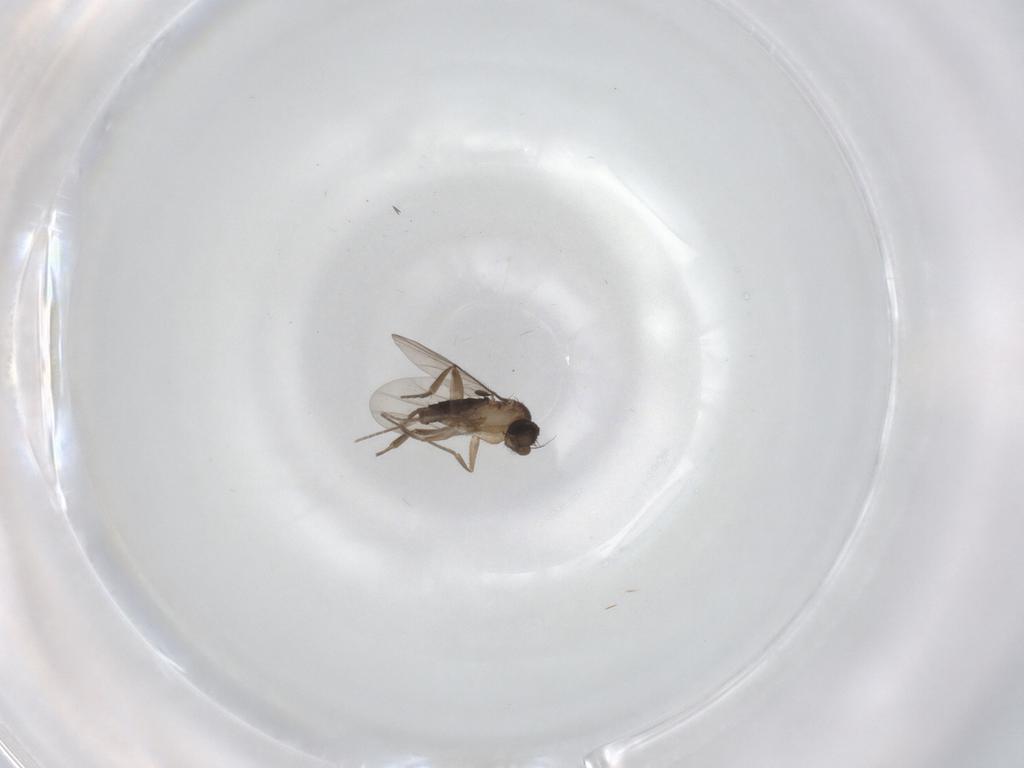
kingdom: Animalia
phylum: Arthropoda
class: Insecta
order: Diptera
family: Phoridae
